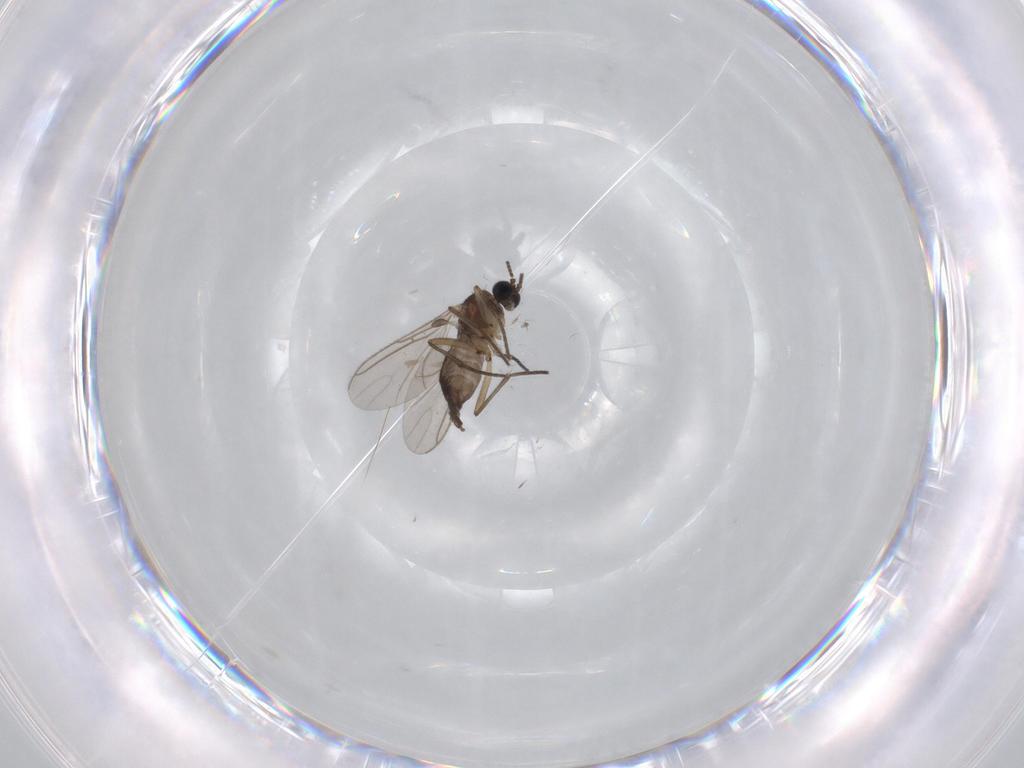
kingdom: Animalia
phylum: Arthropoda
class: Insecta
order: Diptera
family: Sciaridae
